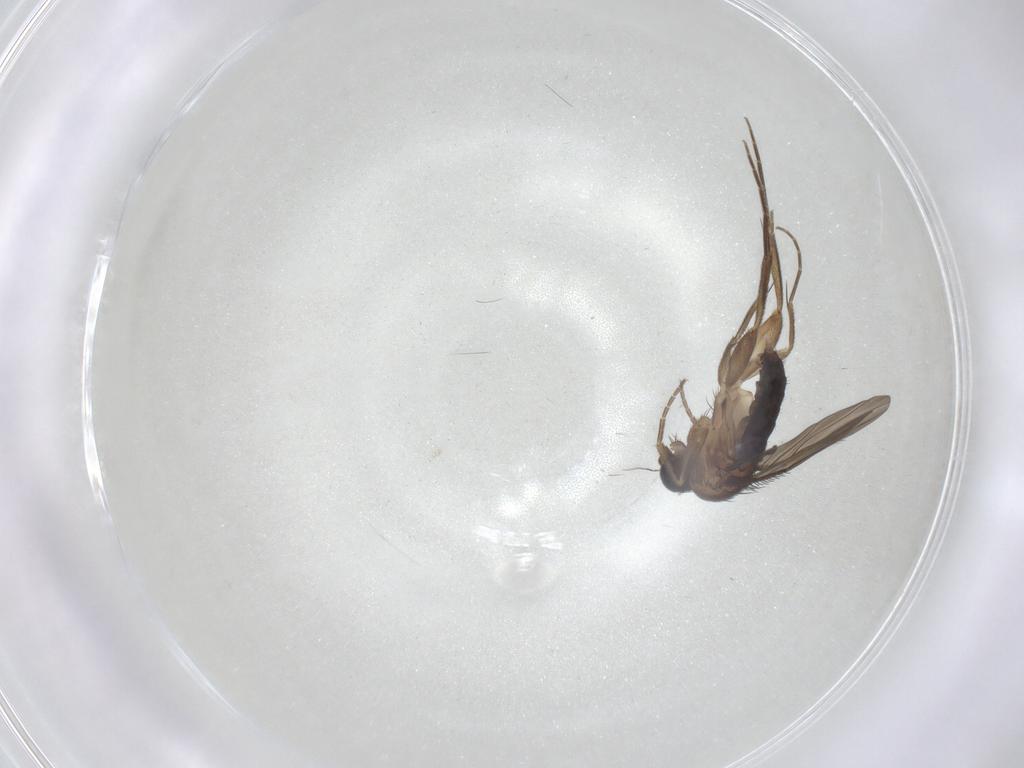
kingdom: Animalia
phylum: Arthropoda
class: Insecta
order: Diptera
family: Phoridae
